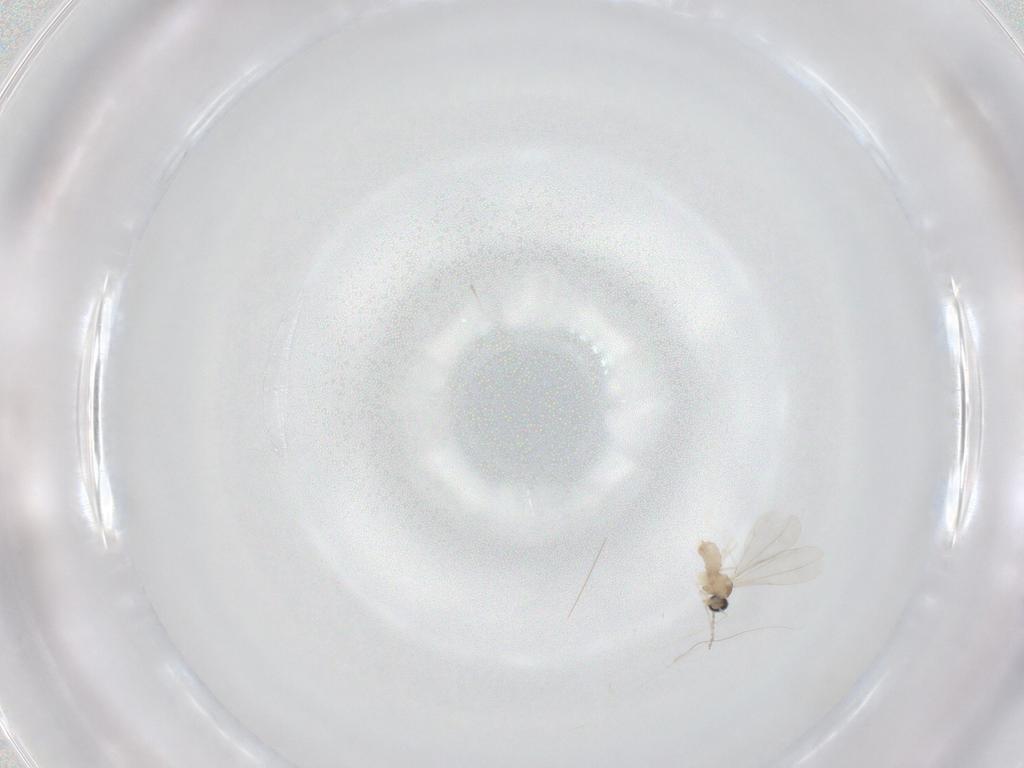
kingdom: Animalia
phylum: Arthropoda
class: Insecta
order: Diptera
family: Cecidomyiidae
